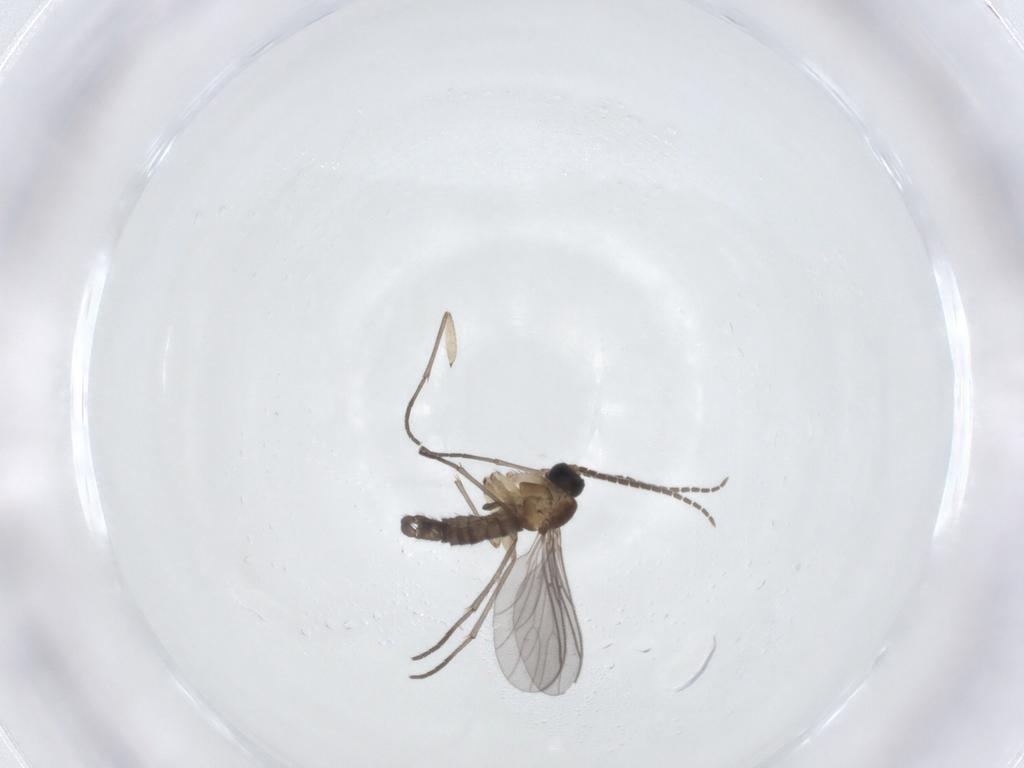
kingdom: Animalia
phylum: Arthropoda
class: Insecta
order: Diptera
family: Sciaridae
